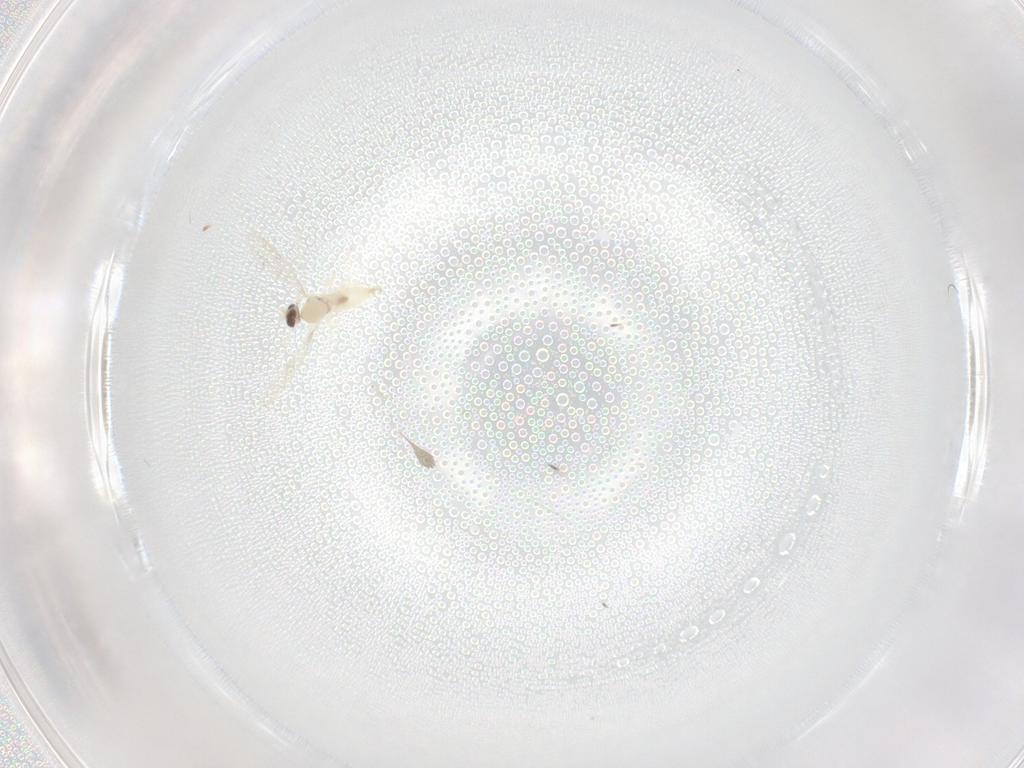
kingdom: Animalia
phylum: Arthropoda
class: Insecta
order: Diptera
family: Cecidomyiidae
